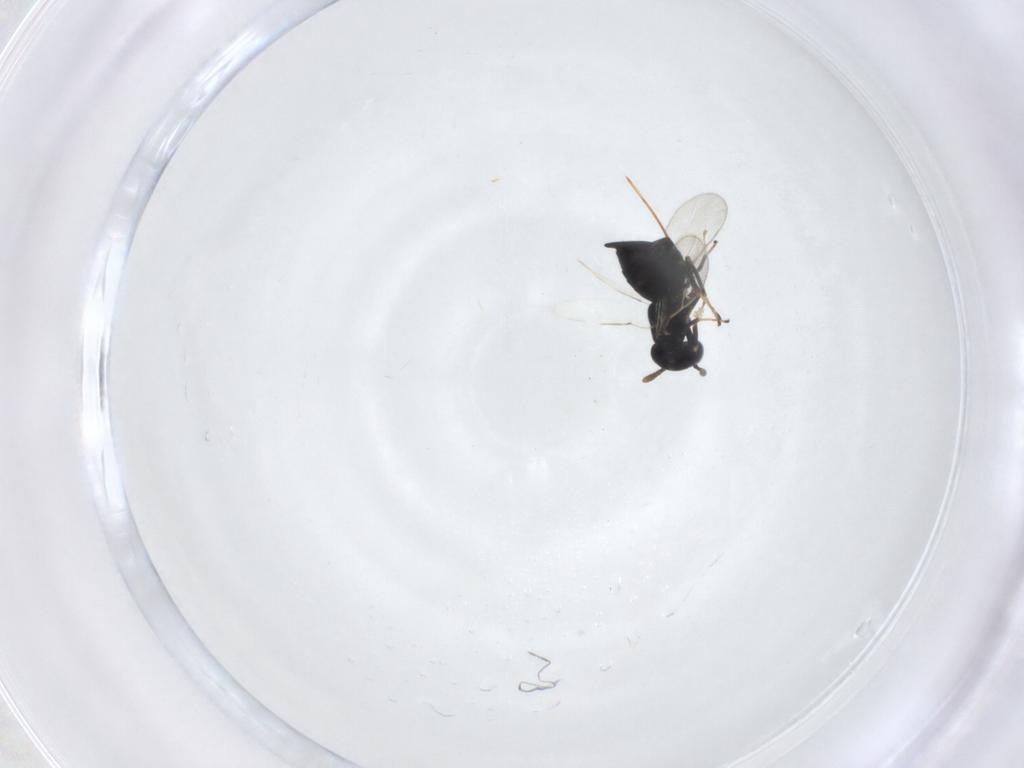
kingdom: Animalia
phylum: Arthropoda
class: Insecta
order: Hymenoptera
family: Pteromalidae
